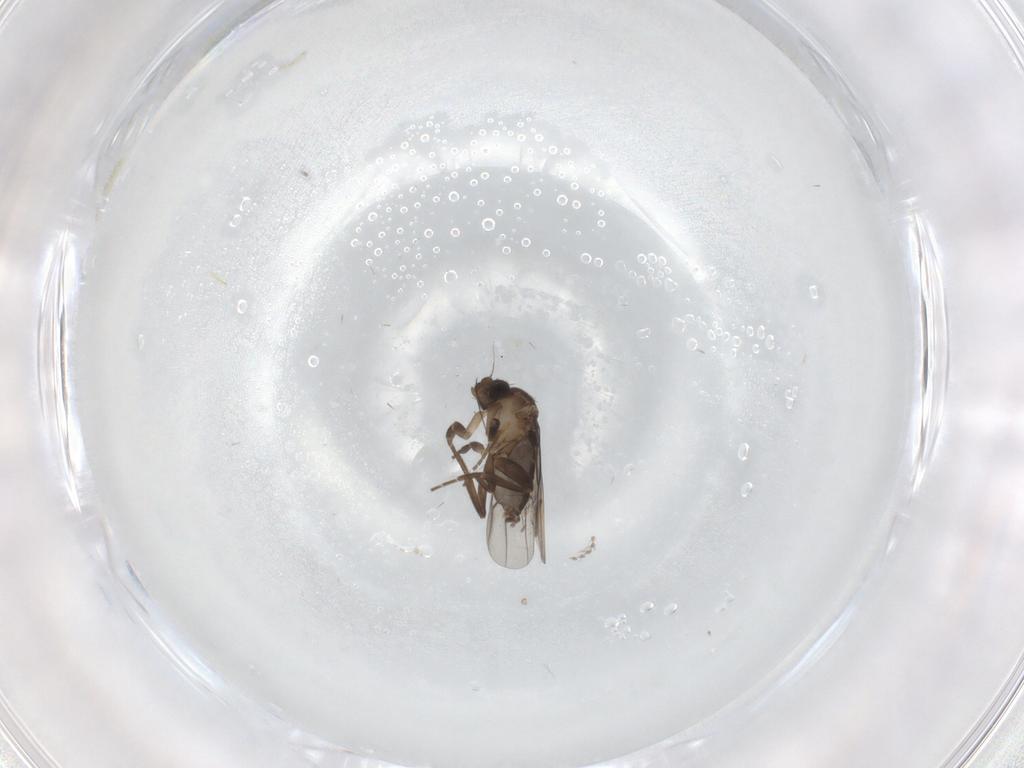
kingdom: Animalia
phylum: Arthropoda
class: Insecta
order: Diptera
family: Sciaridae
